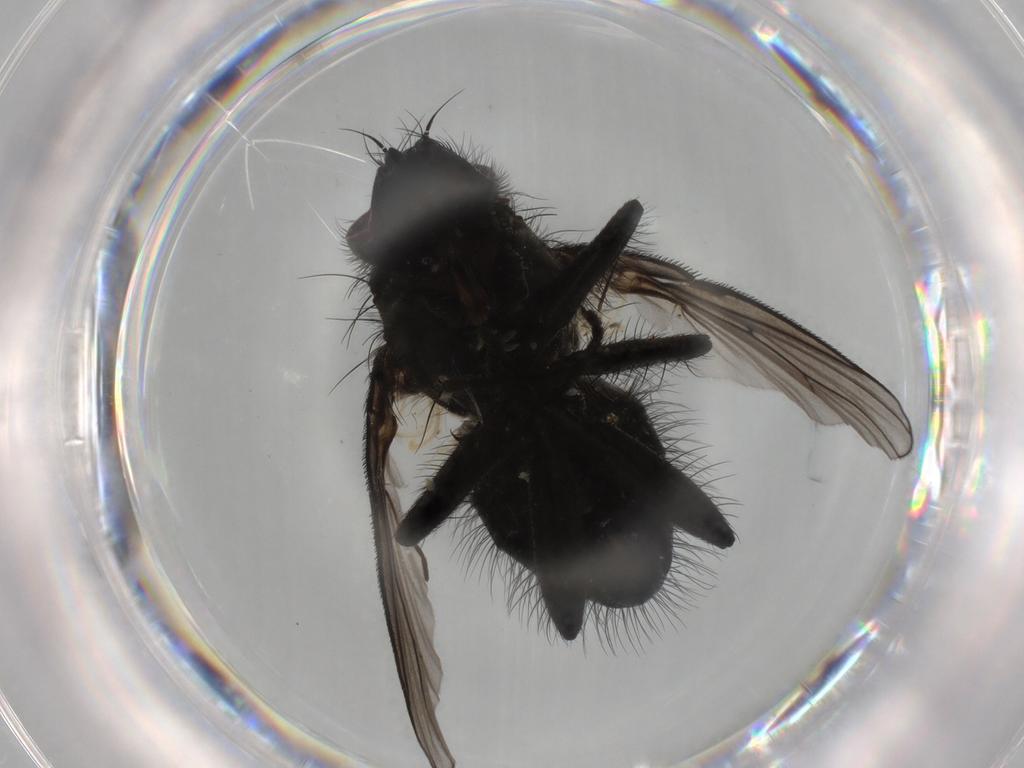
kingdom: Animalia
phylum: Arthropoda
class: Insecta
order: Diptera
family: Muscidae
